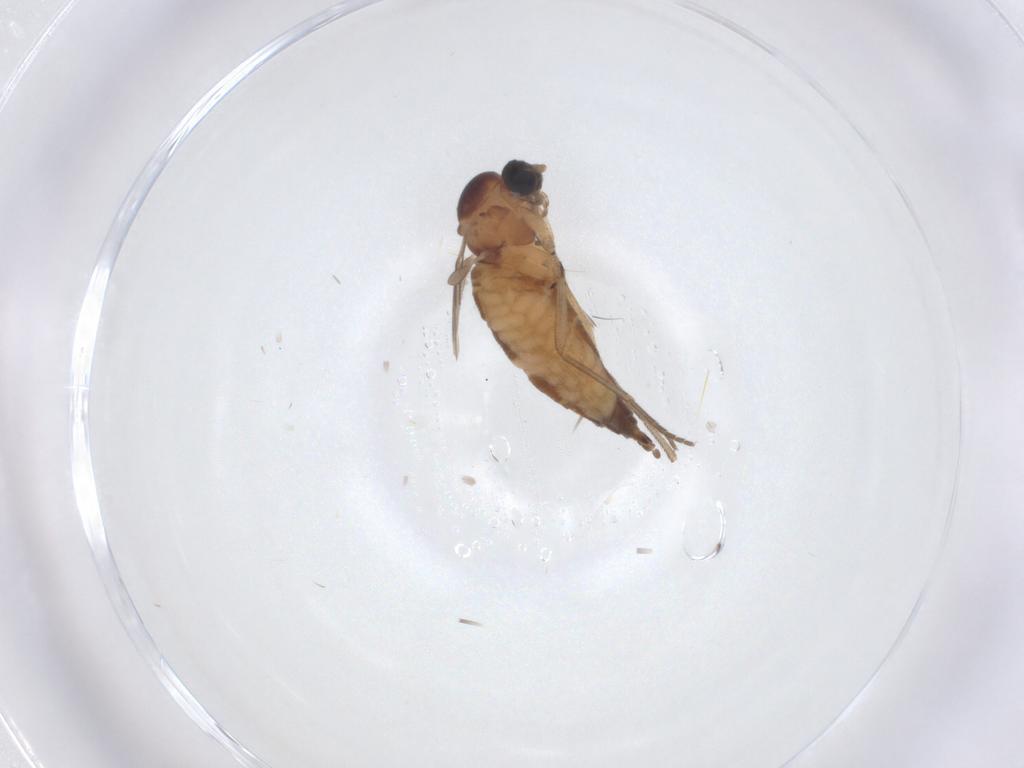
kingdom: Animalia
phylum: Arthropoda
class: Insecta
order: Diptera
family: Sciaridae
